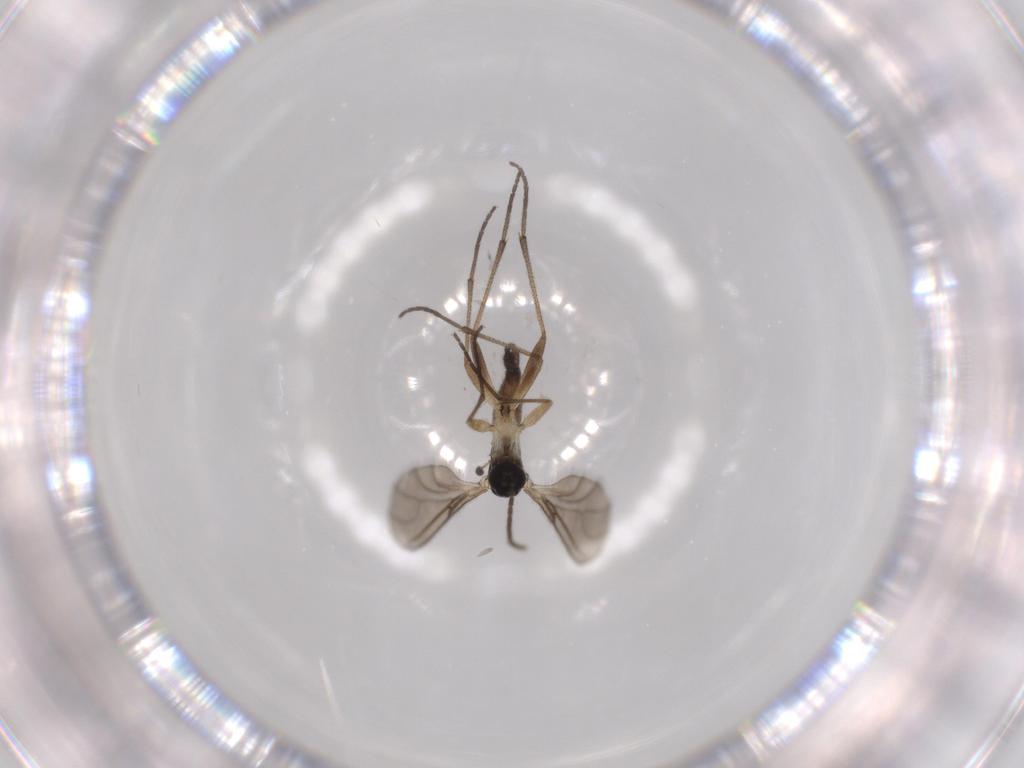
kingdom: Animalia
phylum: Arthropoda
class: Insecta
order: Diptera
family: Sciaridae
